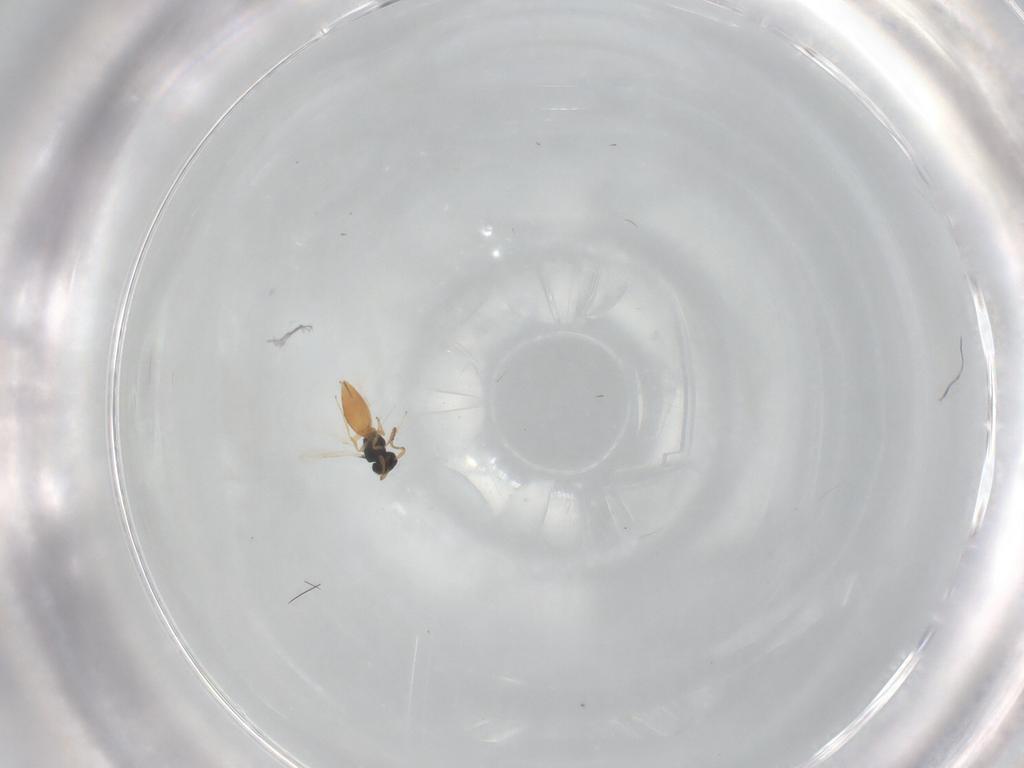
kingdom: Animalia
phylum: Arthropoda
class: Insecta
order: Hymenoptera
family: Scelionidae
